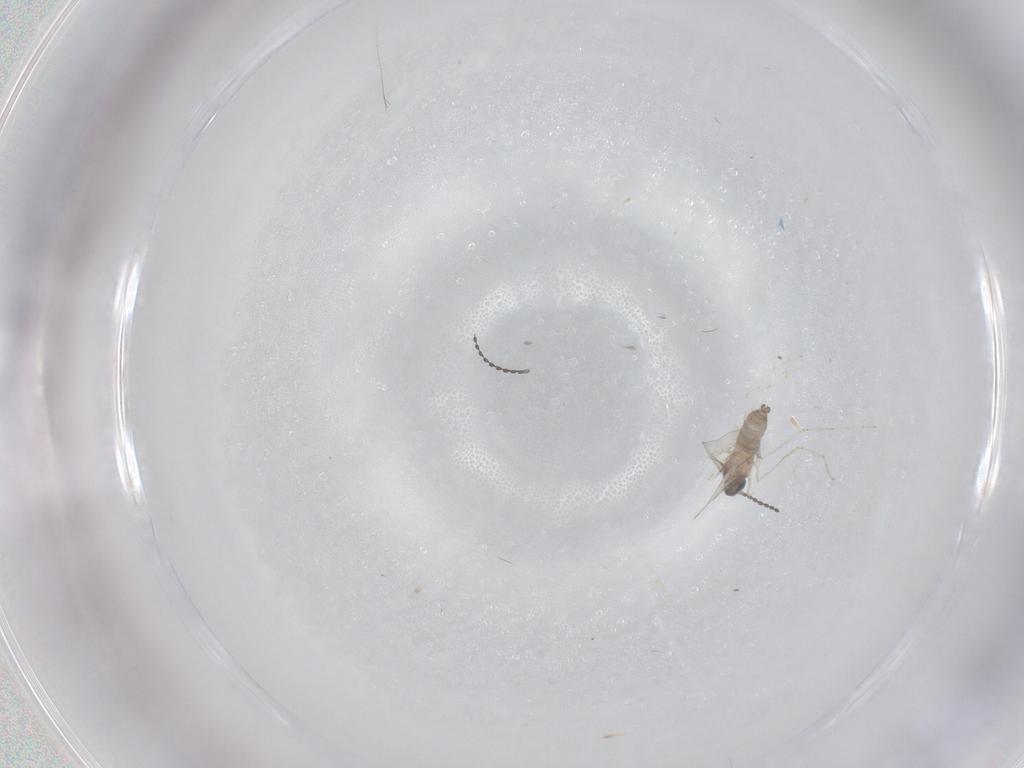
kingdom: Animalia
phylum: Arthropoda
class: Insecta
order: Diptera
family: Cecidomyiidae
